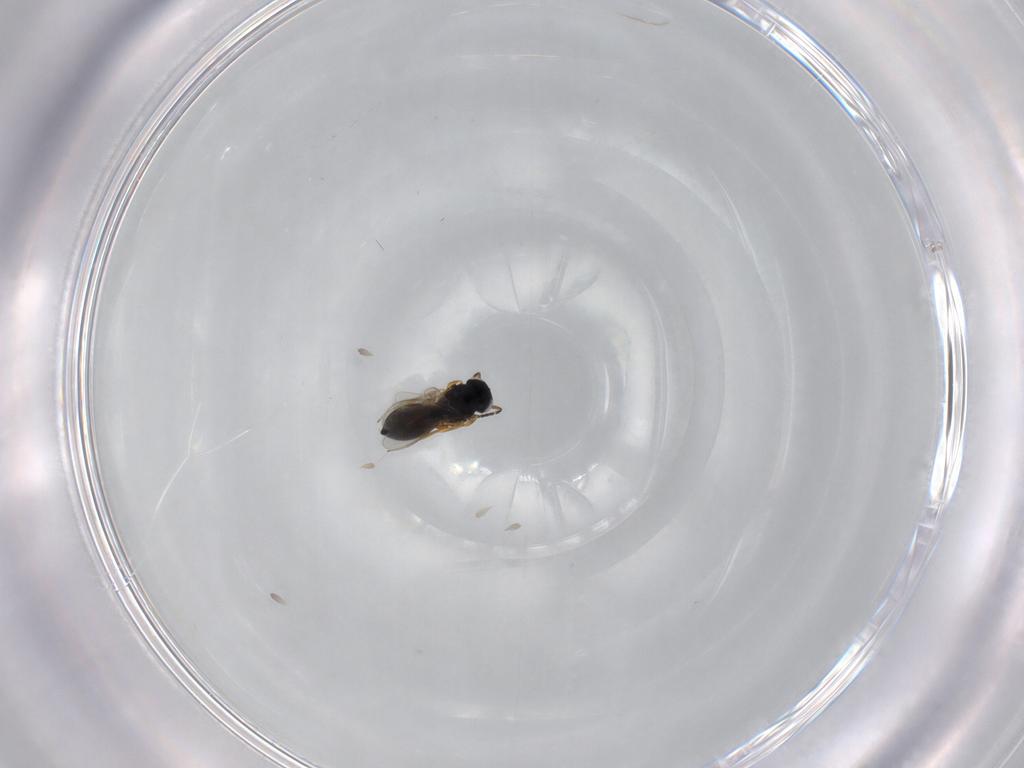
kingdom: Animalia
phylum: Arthropoda
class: Insecta
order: Hymenoptera
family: Scelionidae
